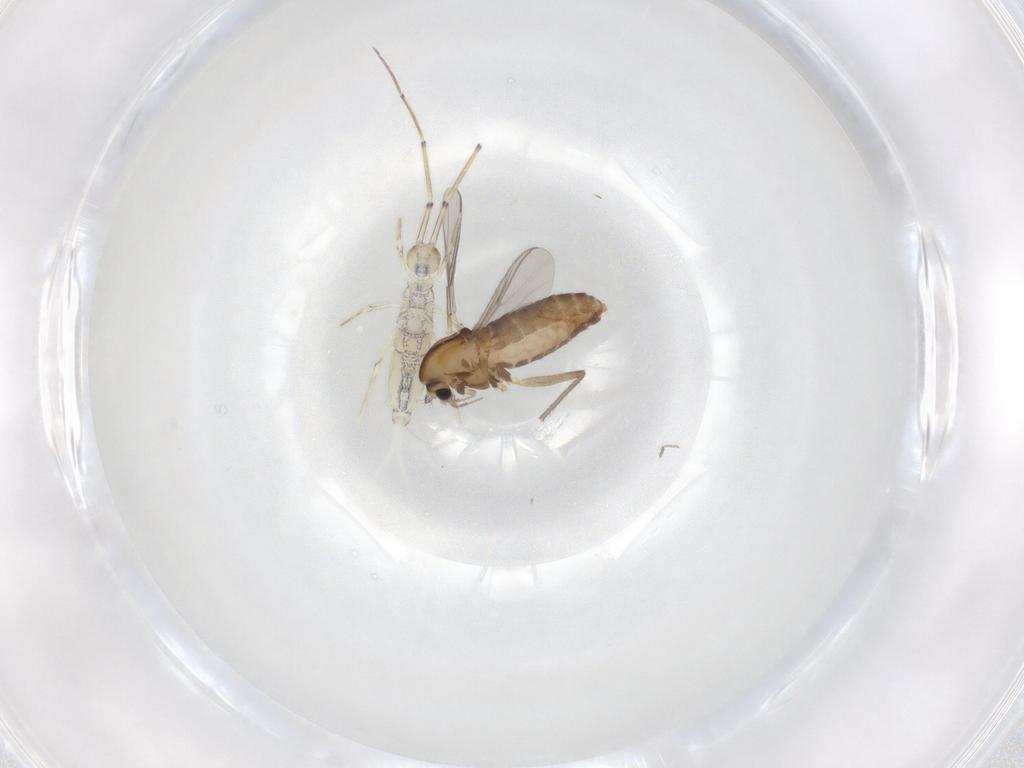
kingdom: Animalia
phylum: Arthropoda
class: Insecta
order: Diptera
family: Chironomidae
